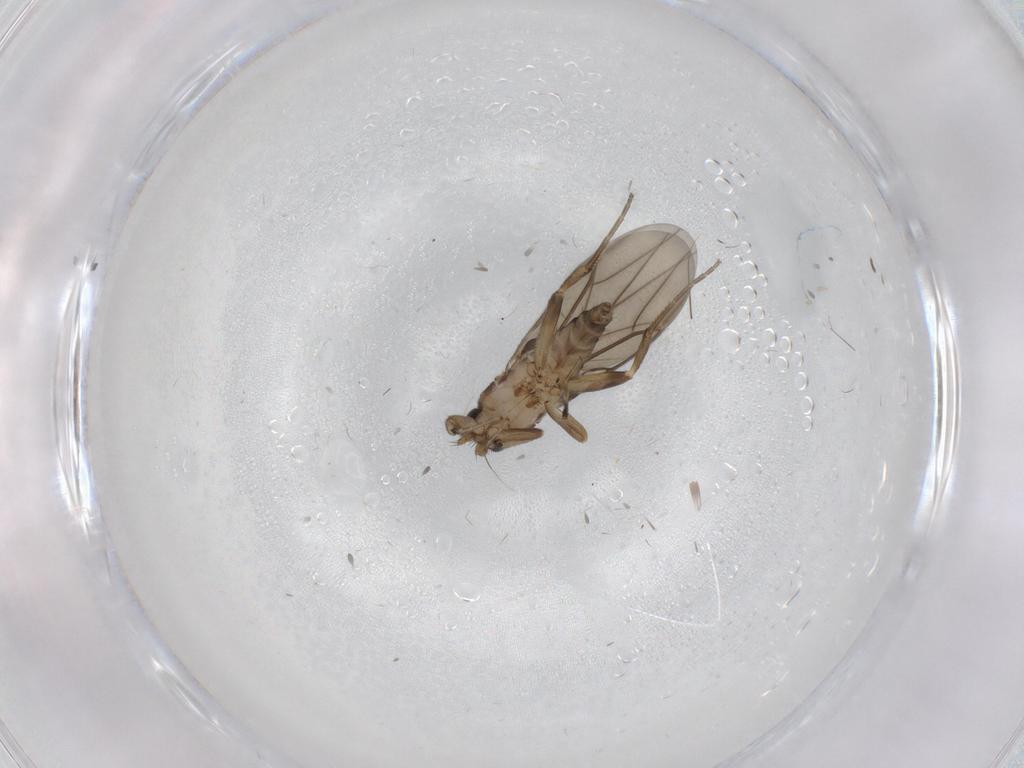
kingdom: Animalia
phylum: Arthropoda
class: Insecta
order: Diptera
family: Phoridae
